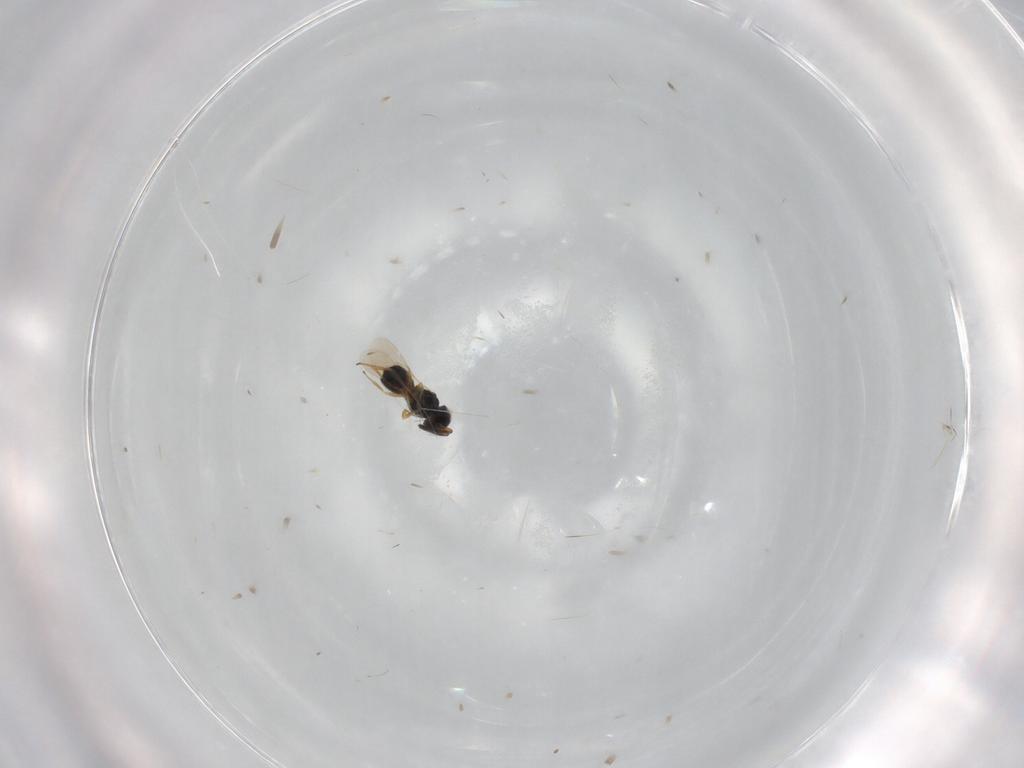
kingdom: Animalia
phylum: Arthropoda
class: Insecta
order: Hymenoptera
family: Scelionidae
